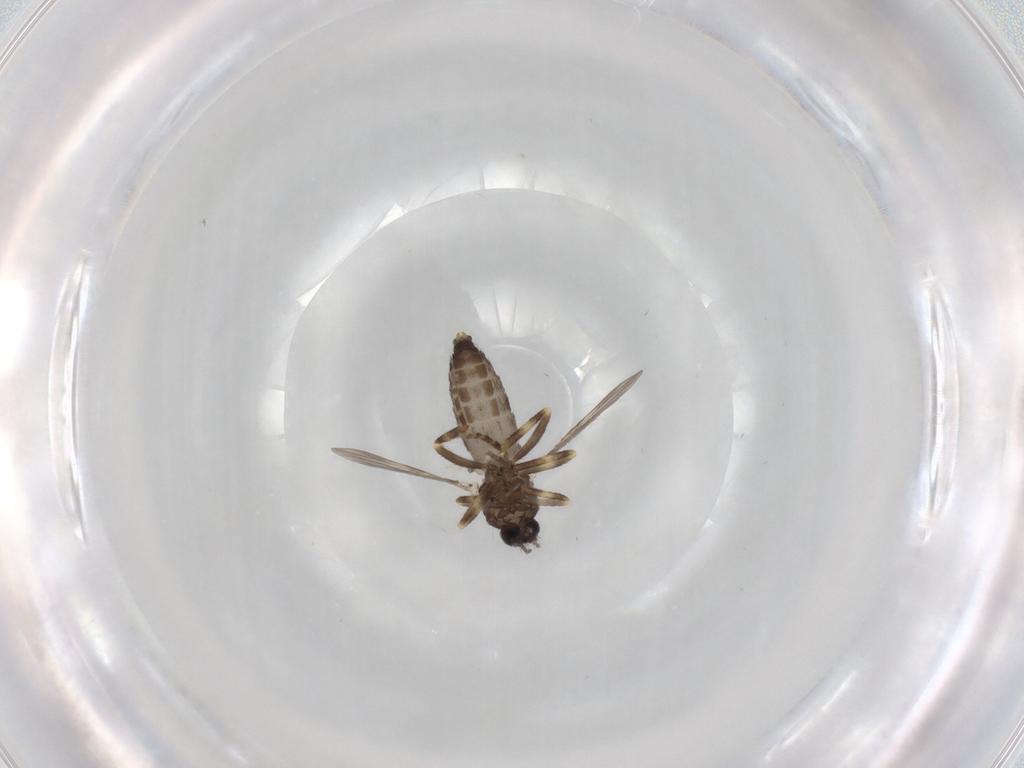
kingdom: Animalia
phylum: Arthropoda
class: Insecta
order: Diptera
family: Ceratopogonidae
